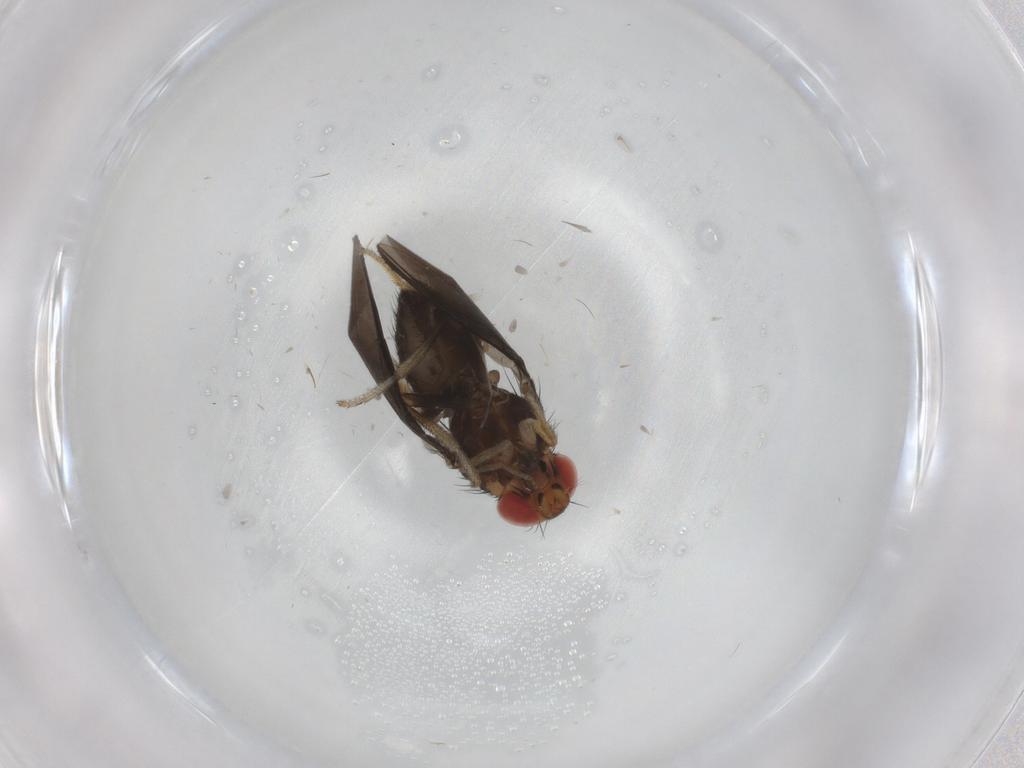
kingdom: Animalia
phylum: Arthropoda
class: Insecta
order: Diptera
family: Cecidomyiidae
